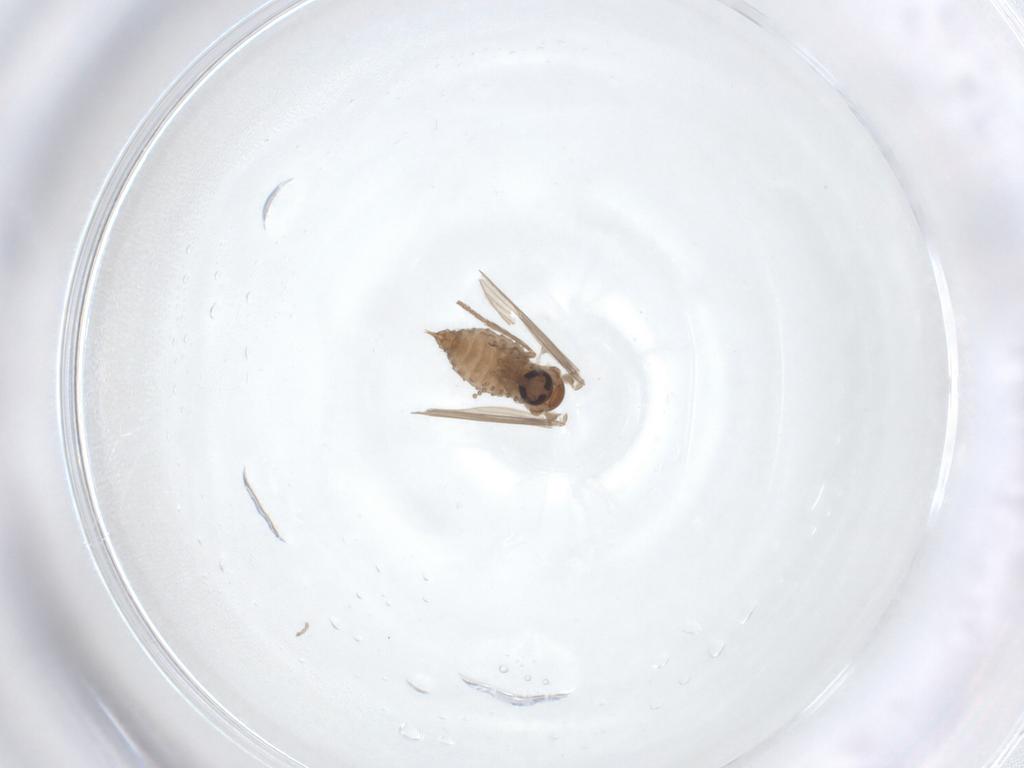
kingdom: Animalia
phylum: Arthropoda
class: Insecta
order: Diptera
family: Psychodidae
